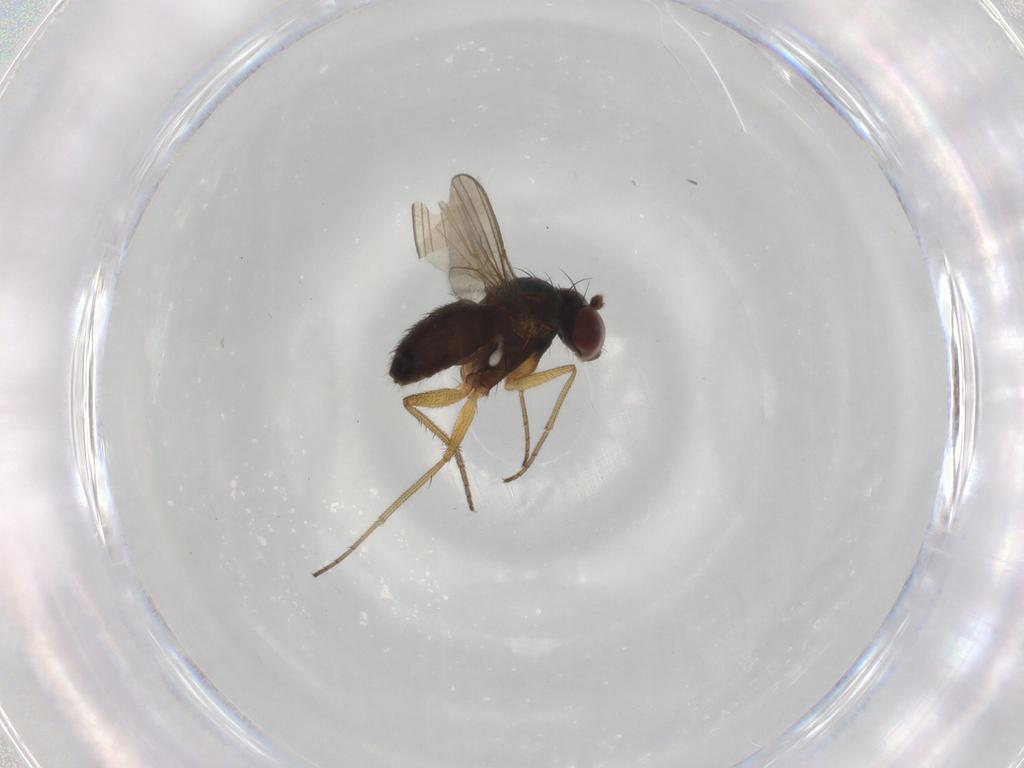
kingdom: Animalia
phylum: Arthropoda
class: Insecta
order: Diptera
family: Dolichopodidae
